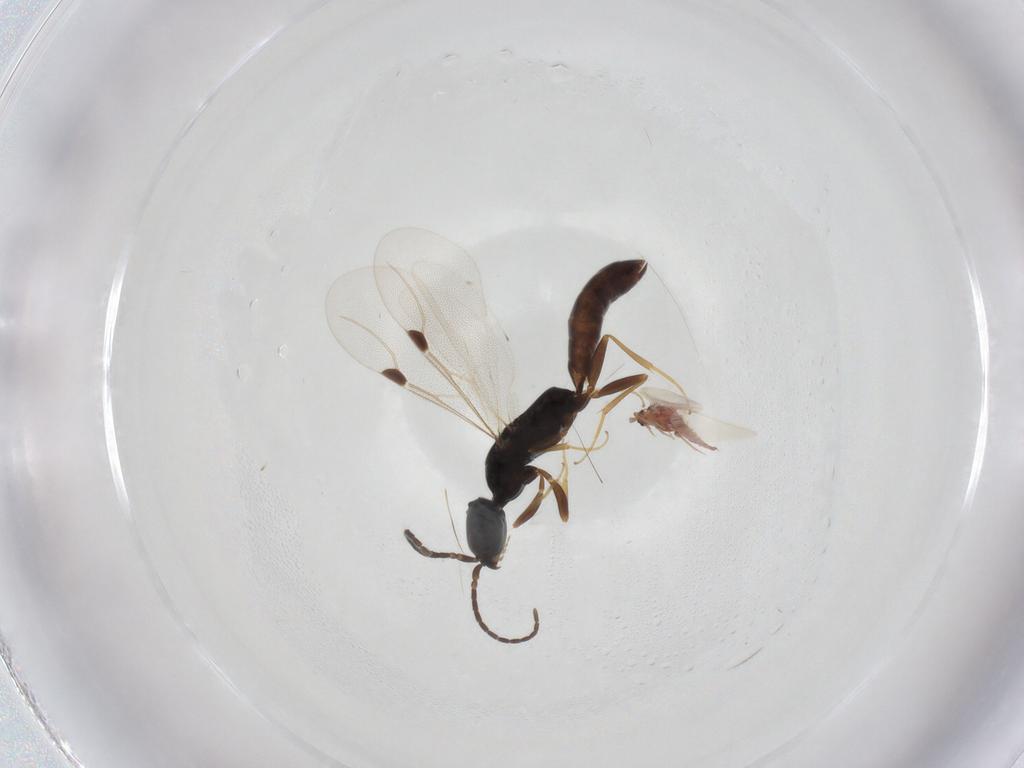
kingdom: Animalia
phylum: Arthropoda
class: Insecta
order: Hymenoptera
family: Bethylidae
